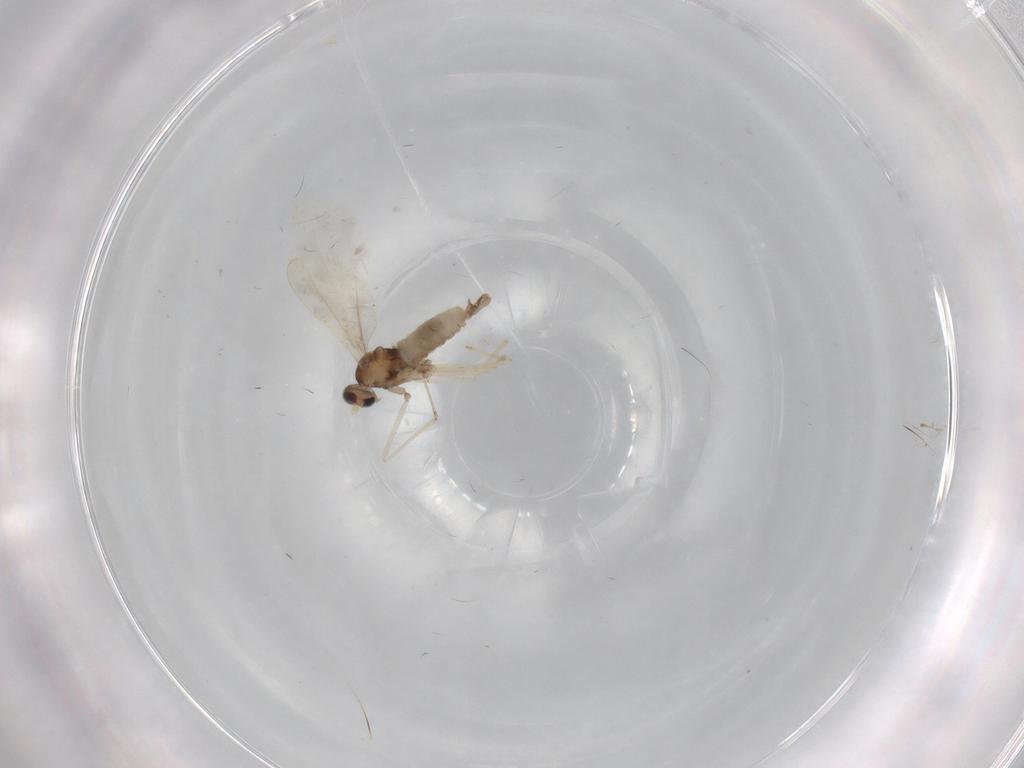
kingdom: Animalia
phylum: Arthropoda
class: Insecta
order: Diptera
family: Cecidomyiidae
